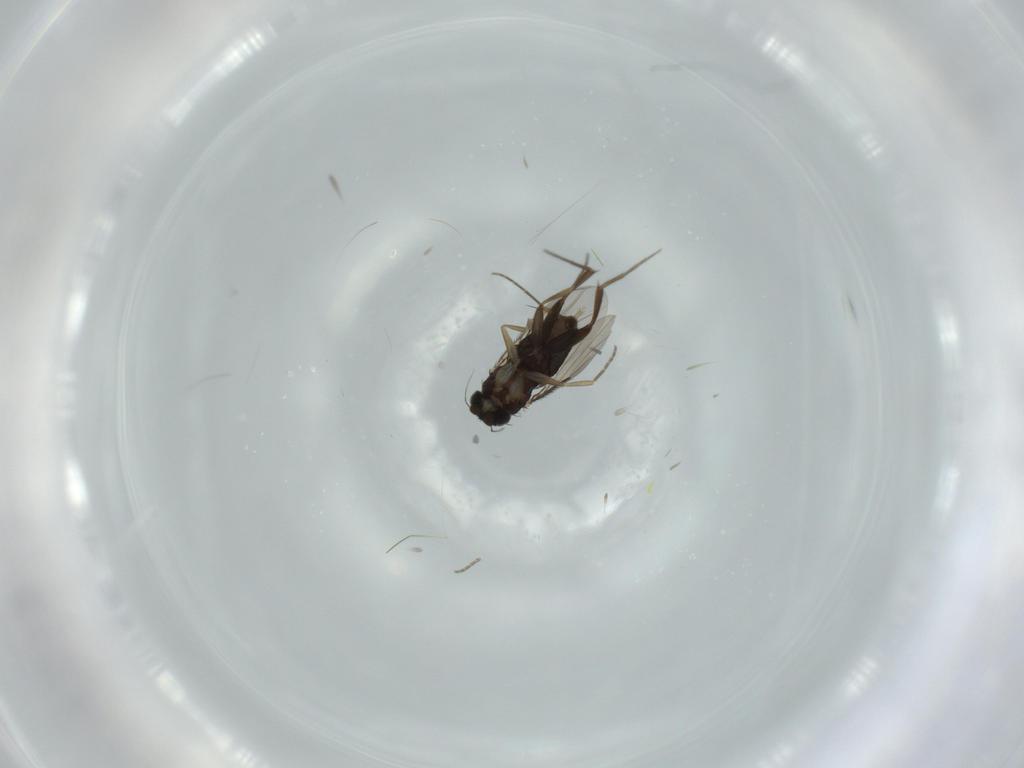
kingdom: Animalia
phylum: Arthropoda
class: Insecta
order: Diptera
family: Phoridae
